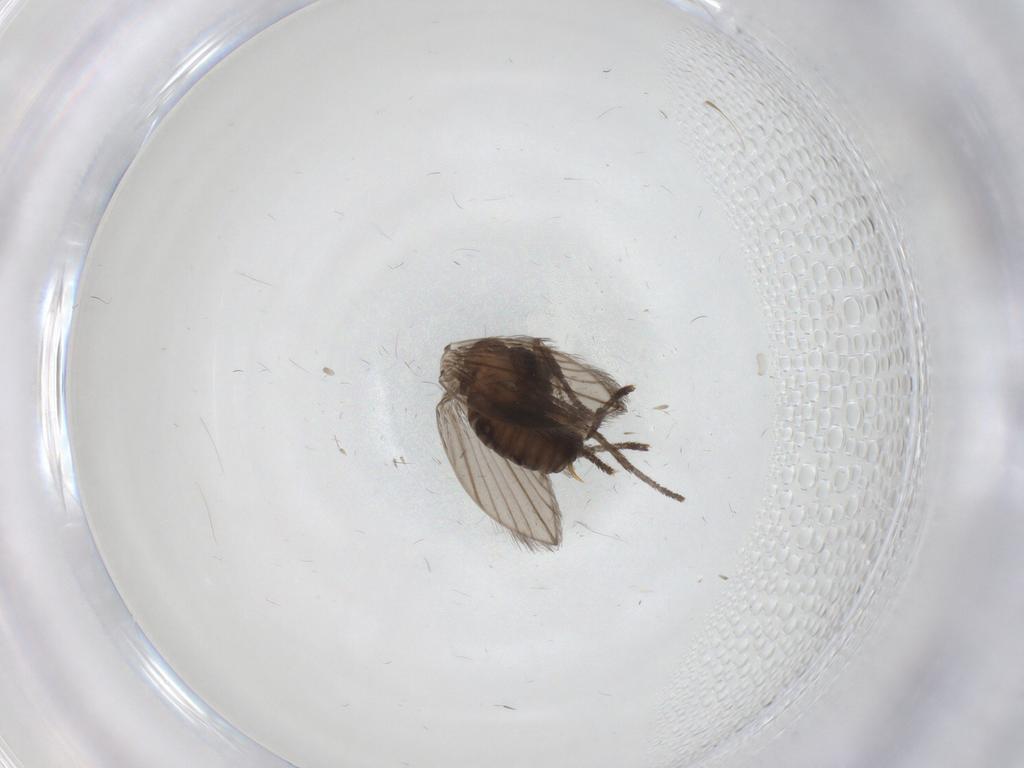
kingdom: Animalia
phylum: Arthropoda
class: Insecta
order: Diptera
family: Psychodidae
